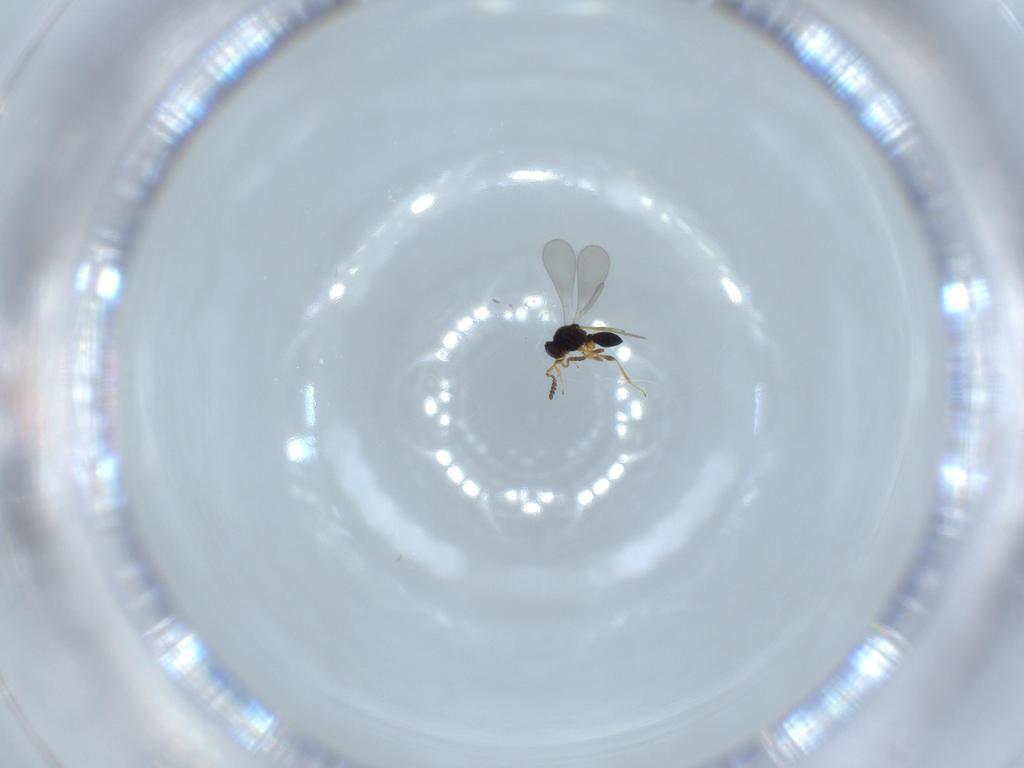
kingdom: Animalia
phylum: Arthropoda
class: Insecta
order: Hymenoptera
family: Platygastridae
